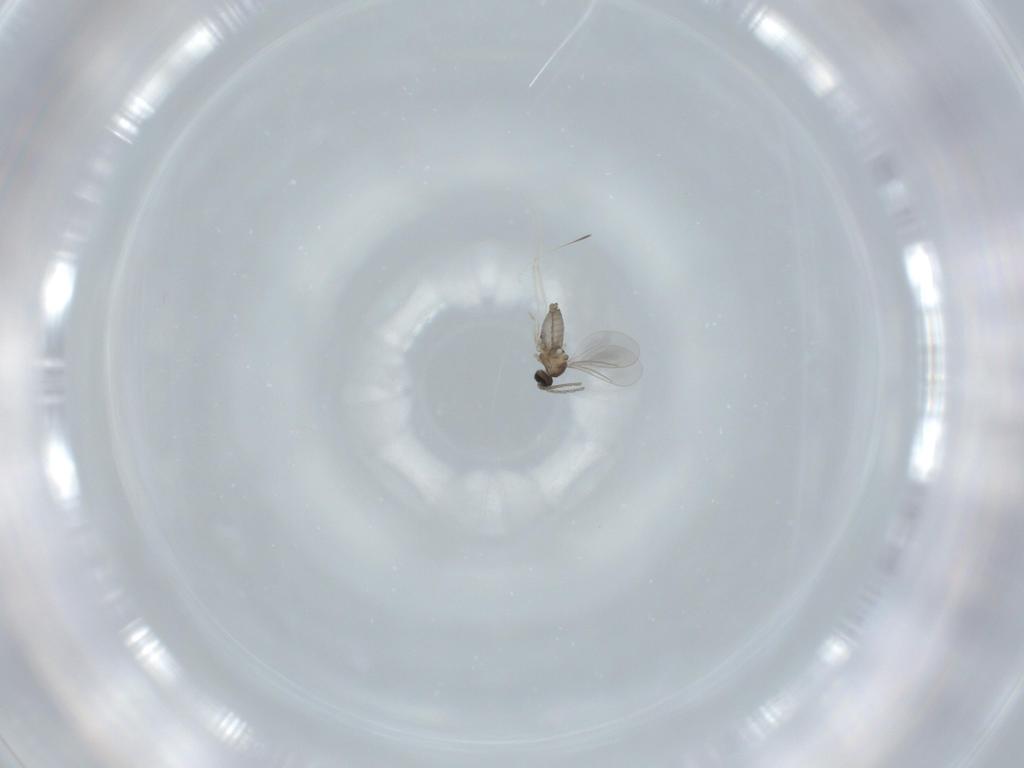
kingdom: Animalia
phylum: Arthropoda
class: Insecta
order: Diptera
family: Cecidomyiidae
